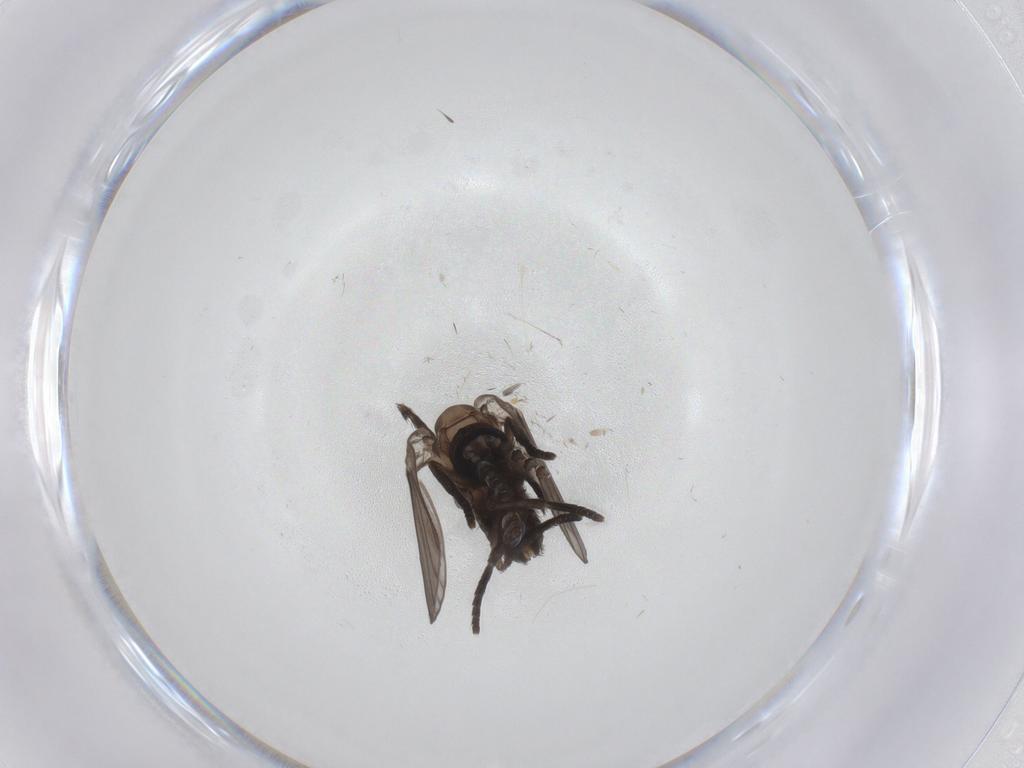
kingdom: Animalia
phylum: Arthropoda
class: Insecta
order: Diptera
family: Psychodidae
